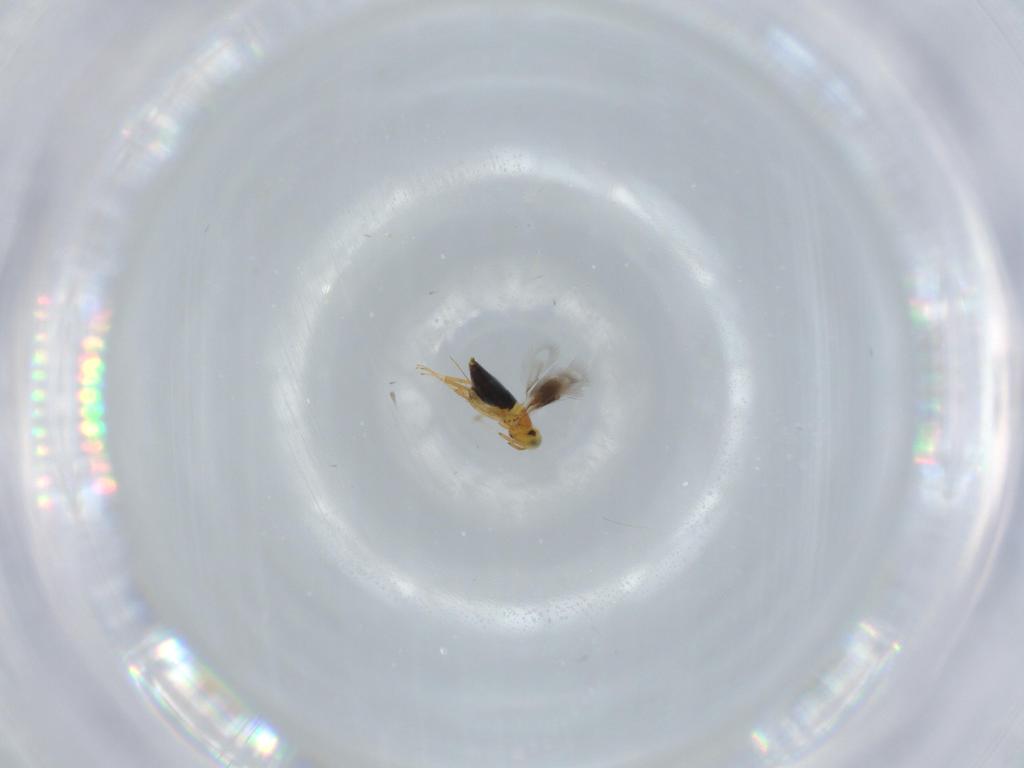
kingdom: Animalia
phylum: Arthropoda
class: Insecta
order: Hymenoptera
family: Signiphoridae
